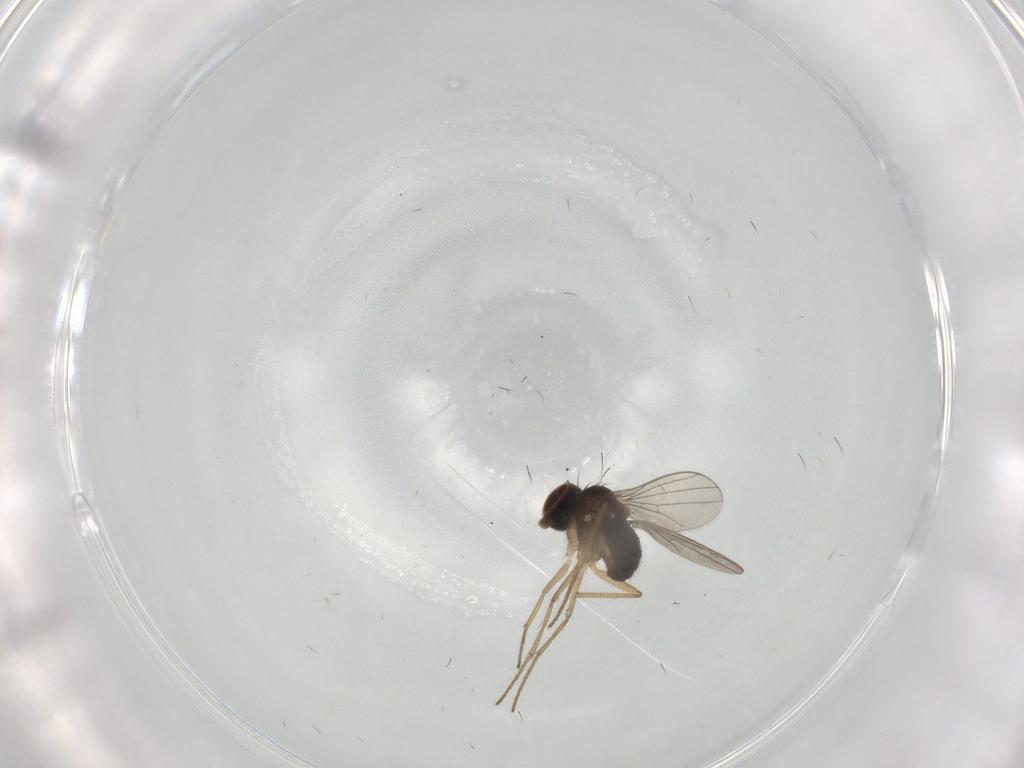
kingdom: Animalia
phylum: Arthropoda
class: Insecta
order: Diptera
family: Dolichopodidae
